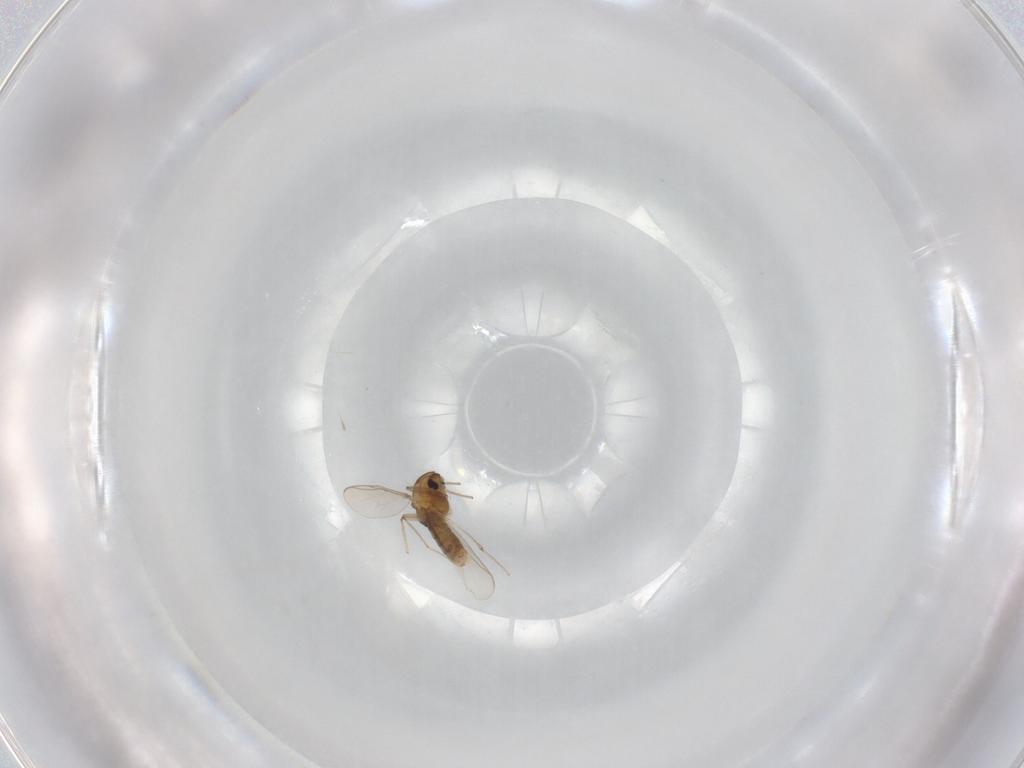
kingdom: Animalia
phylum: Arthropoda
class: Insecta
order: Diptera
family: Chironomidae
